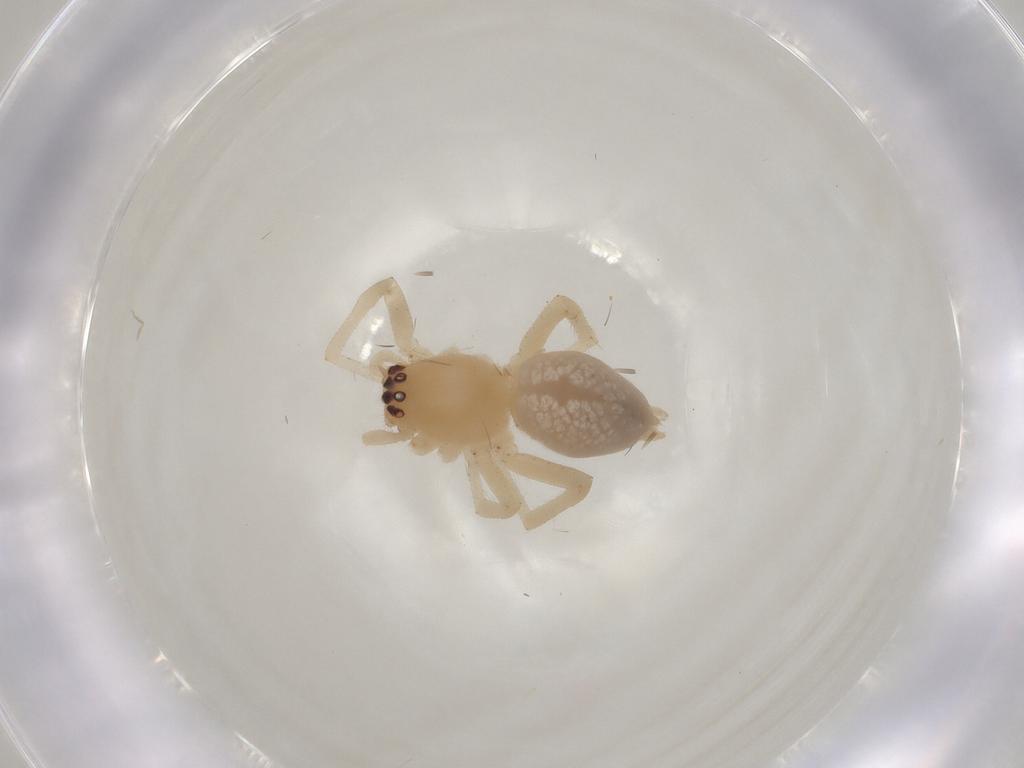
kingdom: Animalia
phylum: Arthropoda
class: Arachnida
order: Araneae
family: Cheiracanthiidae
